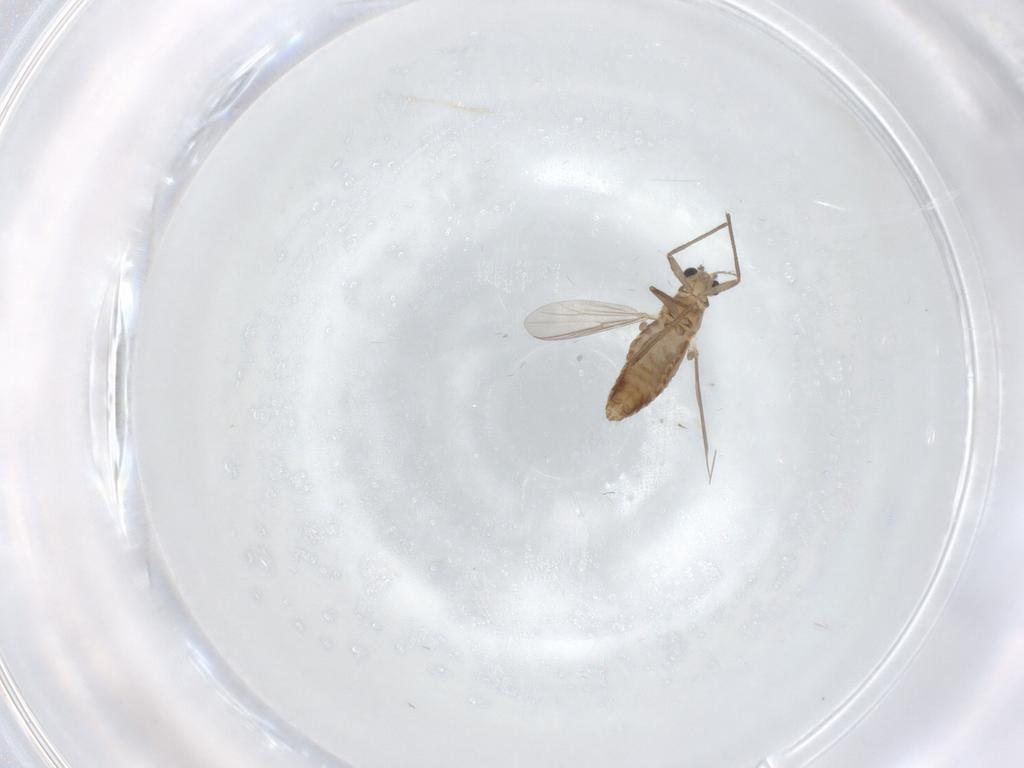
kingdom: Animalia
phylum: Arthropoda
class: Insecta
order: Diptera
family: Chironomidae
